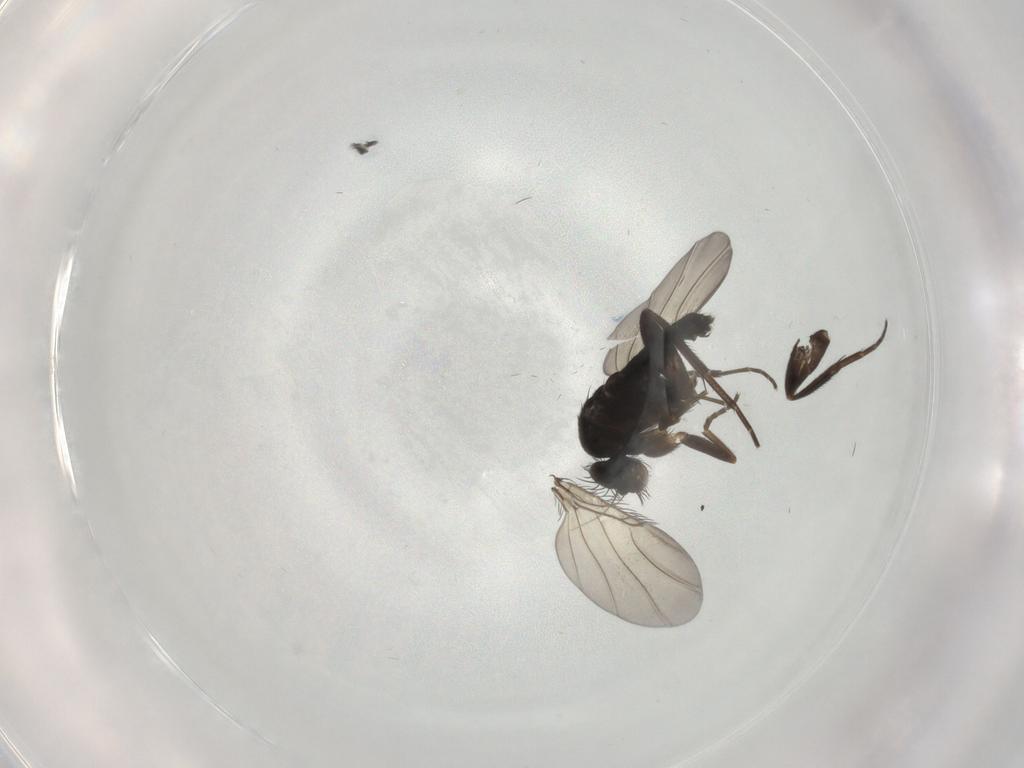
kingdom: Animalia
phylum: Arthropoda
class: Insecta
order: Diptera
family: Phoridae
